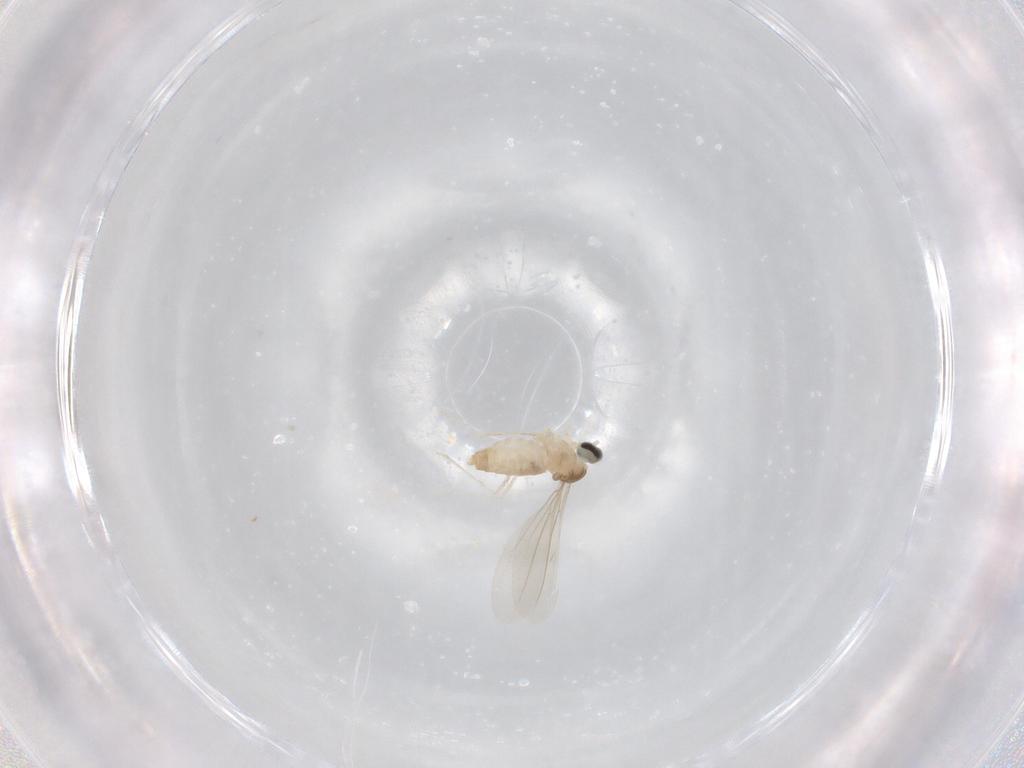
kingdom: Animalia
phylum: Arthropoda
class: Insecta
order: Diptera
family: Cecidomyiidae
